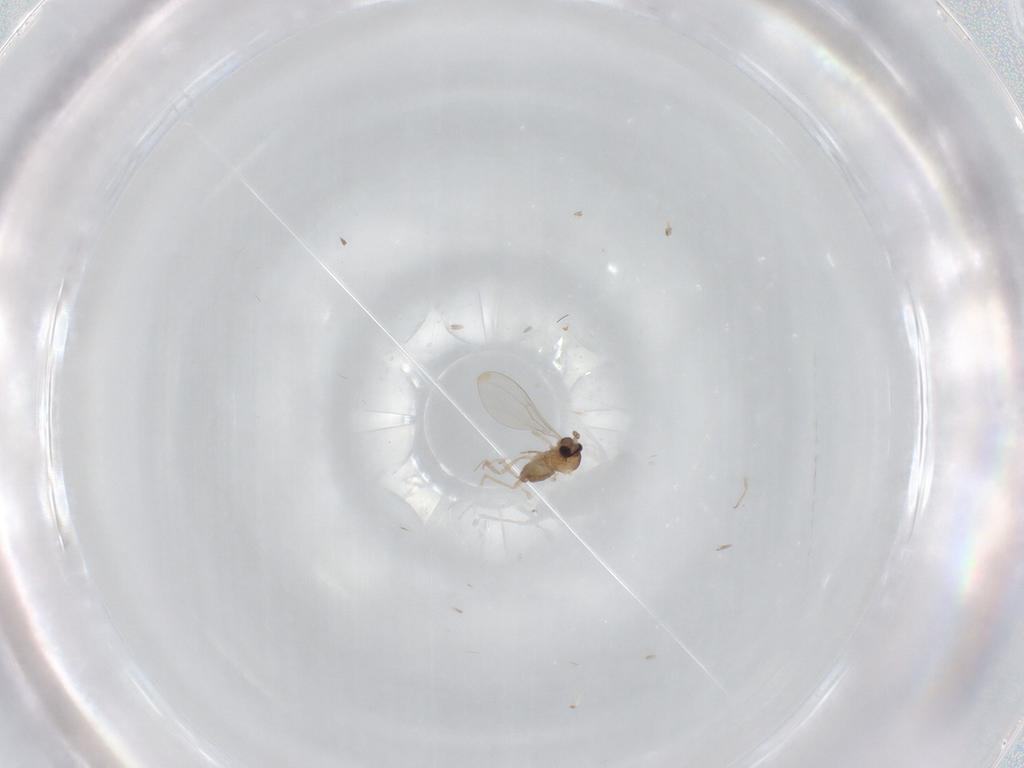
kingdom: Animalia
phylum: Arthropoda
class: Insecta
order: Diptera
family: Cecidomyiidae
